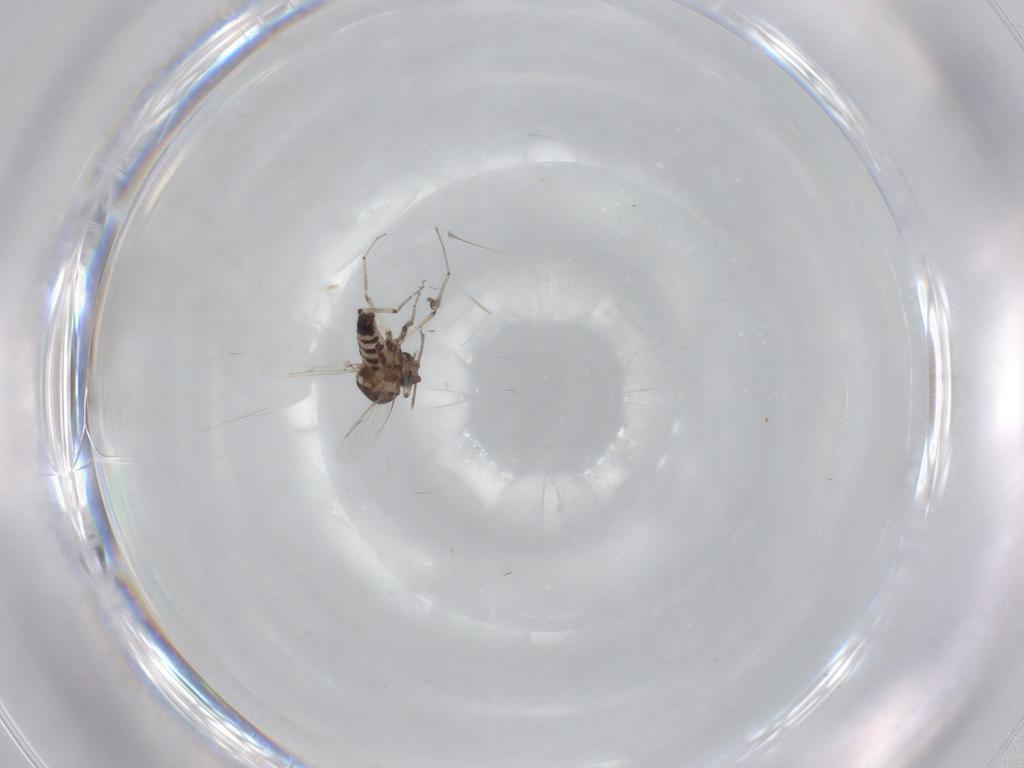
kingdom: Animalia
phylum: Arthropoda
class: Insecta
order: Diptera
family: Ceratopogonidae
